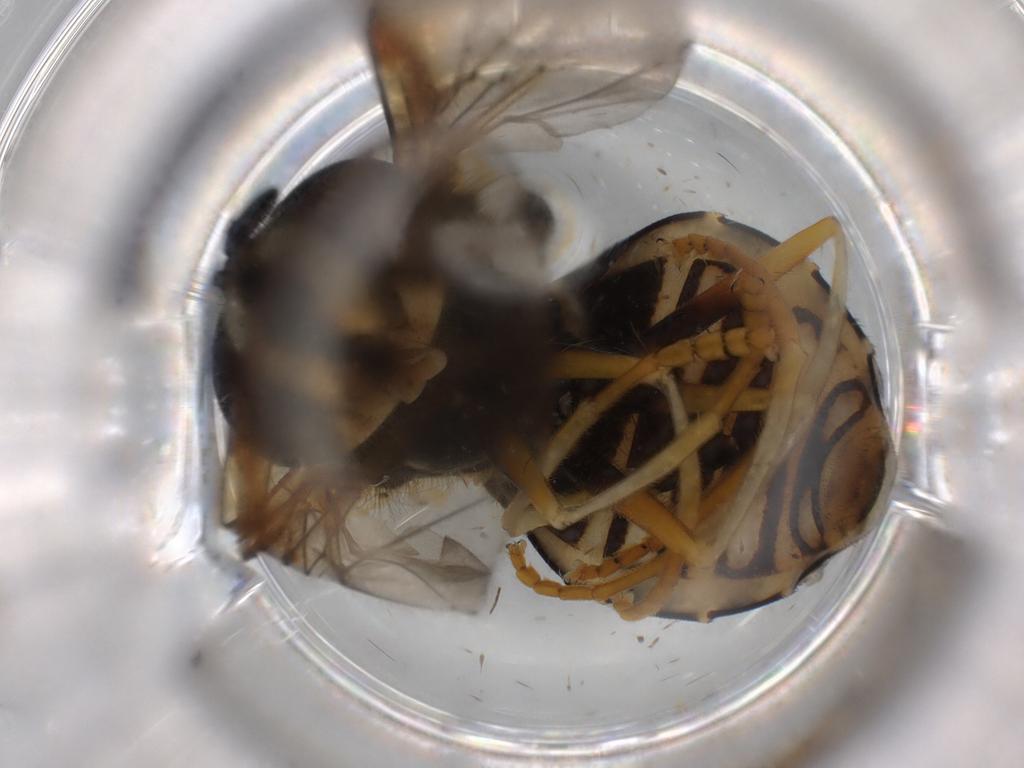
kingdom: Animalia
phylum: Arthropoda
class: Insecta
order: Diptera
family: Syrphidae
